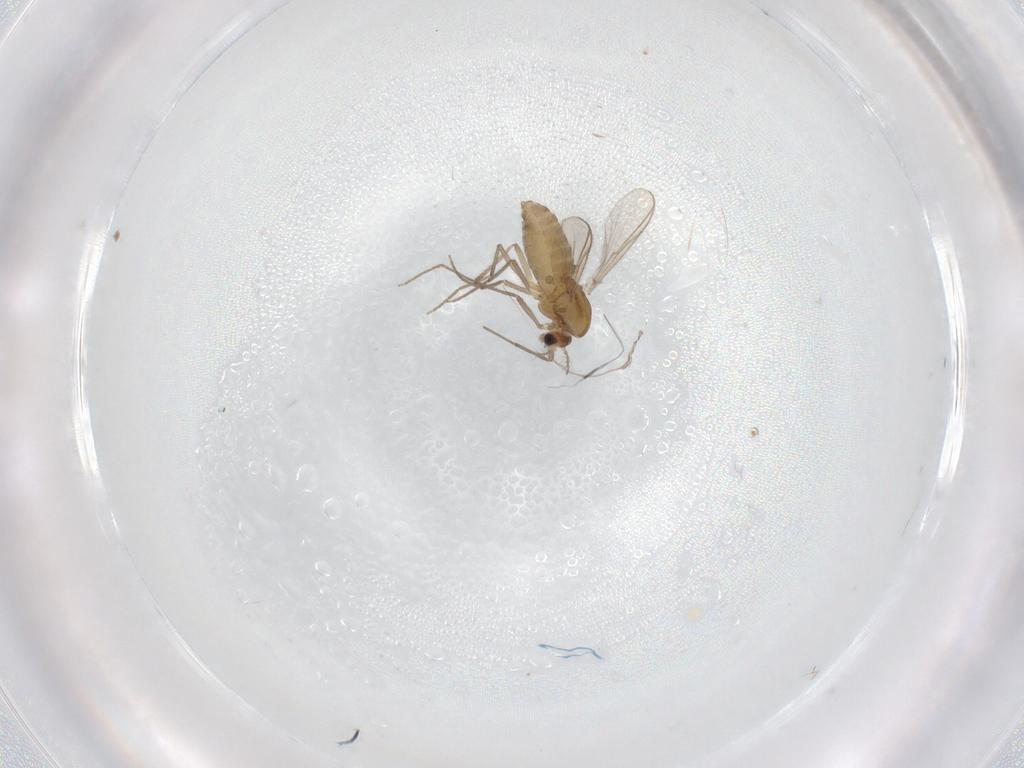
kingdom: Animalia
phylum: Arthropoda
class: Insecta
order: Diptera
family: Chironomidae
